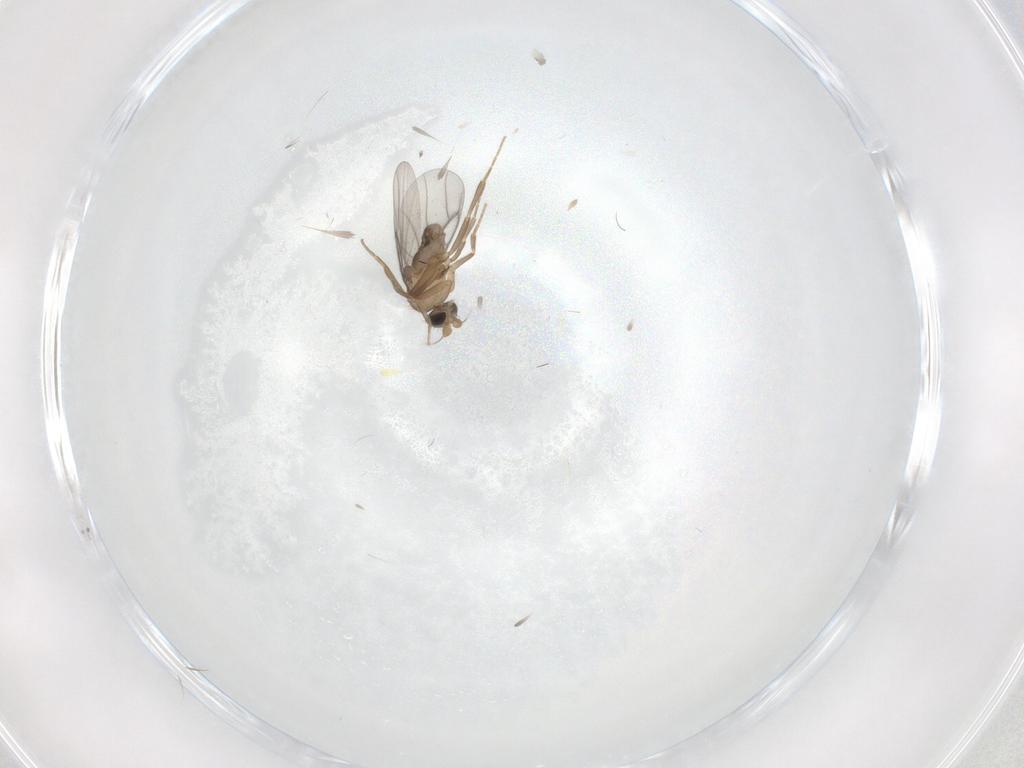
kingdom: Animalia
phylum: Arthropoda
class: Insecta
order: Diptera
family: Cecidomyiidae
